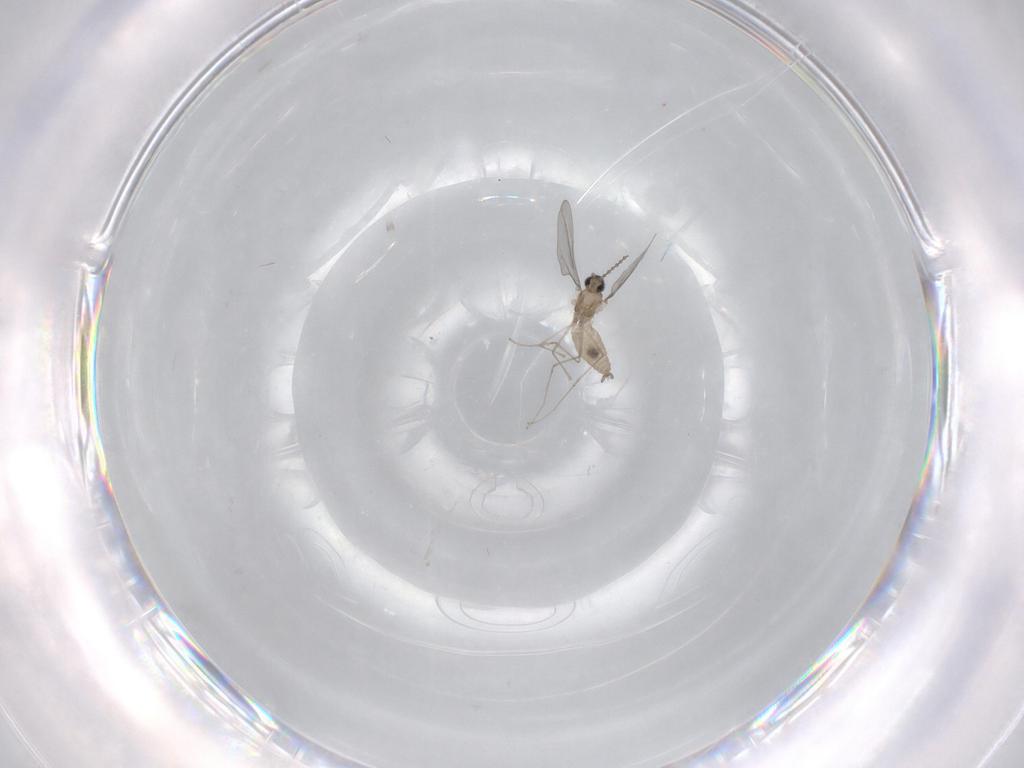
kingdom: Animalia
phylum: Arthropoda
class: Insecta
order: Diptera
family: Cecidomyiidae
